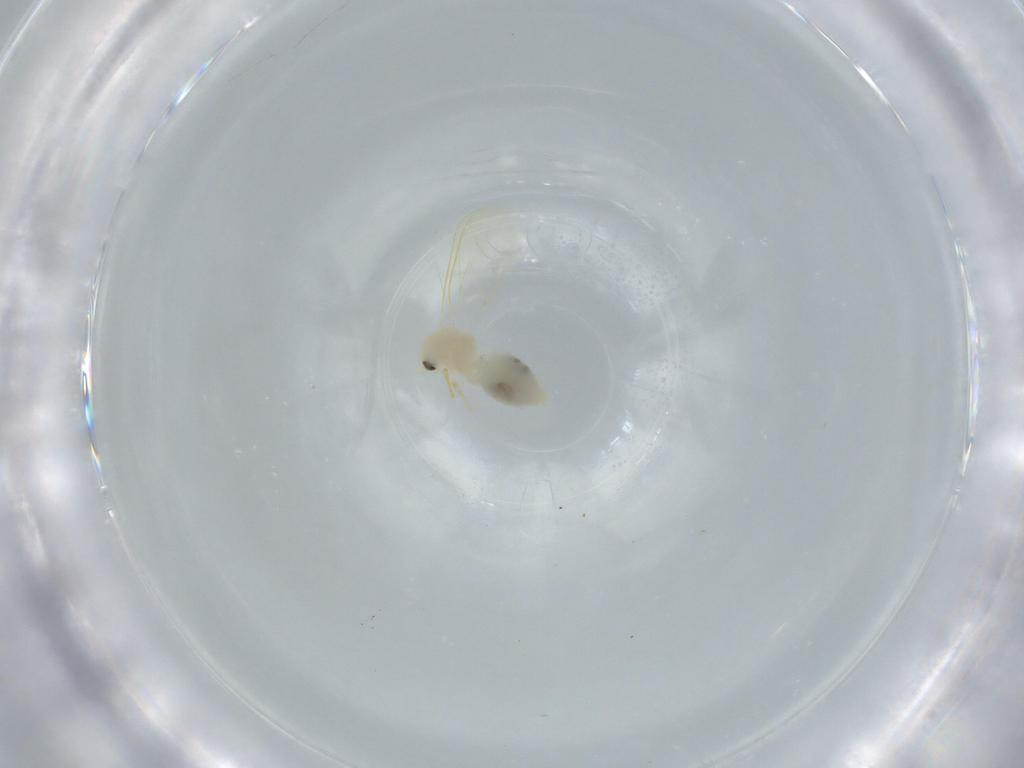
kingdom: Animalia
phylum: Arthropoda
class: Insecta
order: Hemiptera
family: Aleyrodidae
